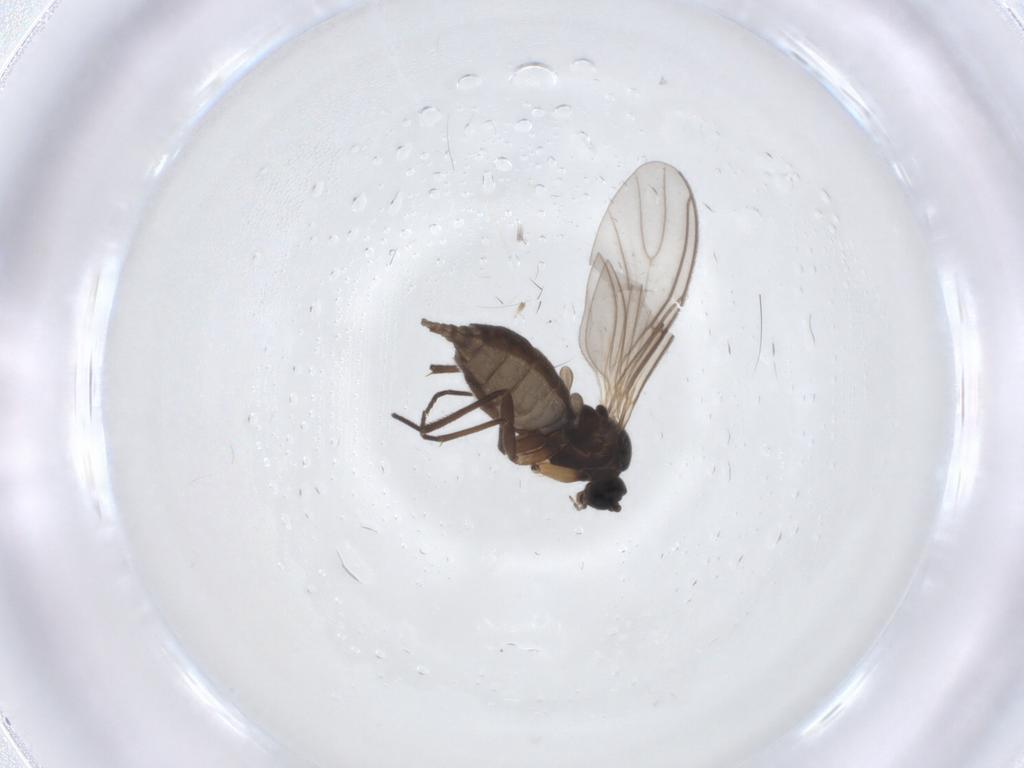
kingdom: Animalia
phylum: Arthropoda
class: Insecta
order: Diptera
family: Sciaridae
